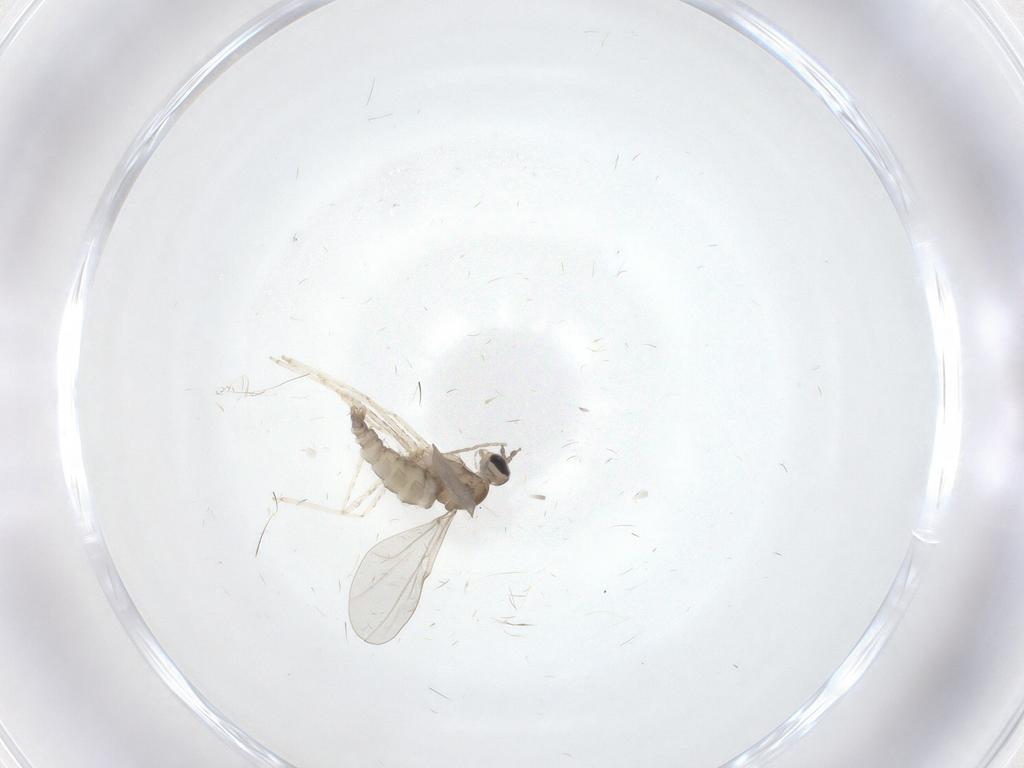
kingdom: Animalia
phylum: Arthropoda
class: Insecta
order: Diptera
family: Cecidomyiidae
